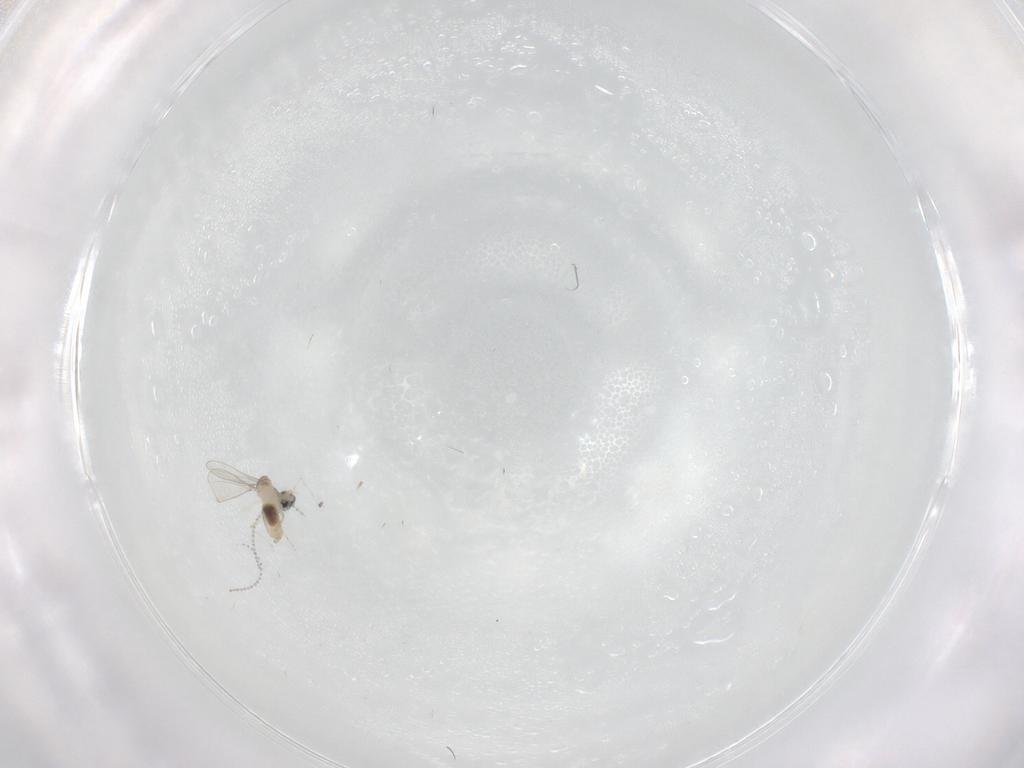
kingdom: Animalia
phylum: Arthropoda
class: Insecta
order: Diptera
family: Cecidomyiidae
